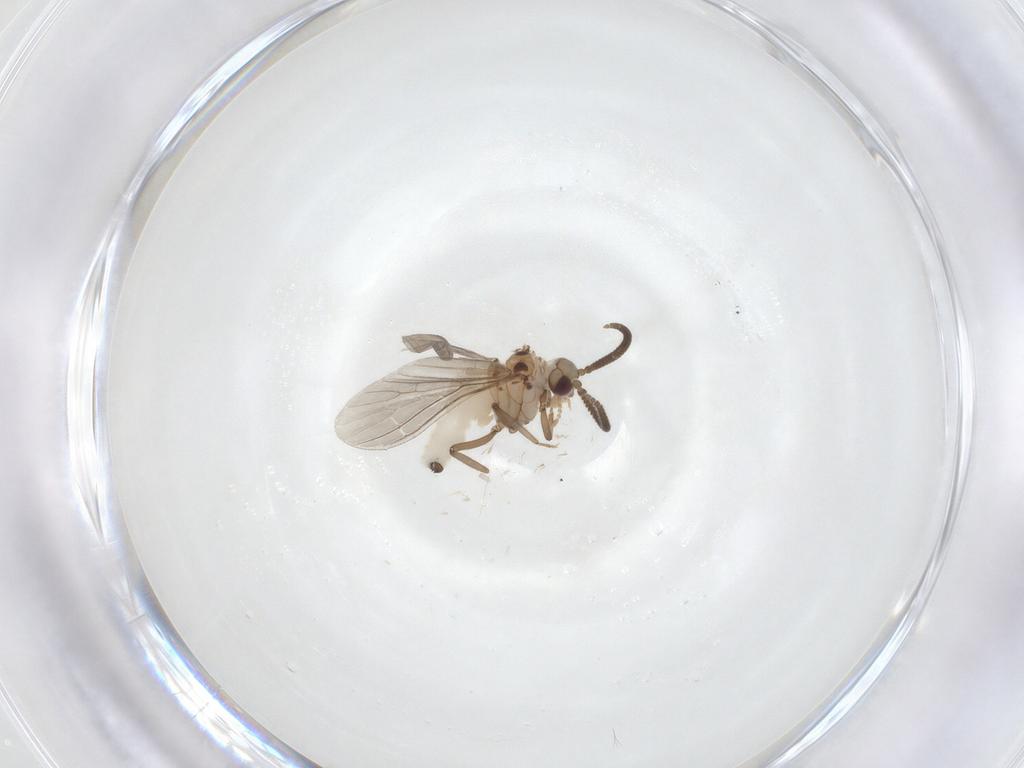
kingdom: Animalia
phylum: Arthropoda
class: Insecta
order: Neuroptera
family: Coniopterygidae
